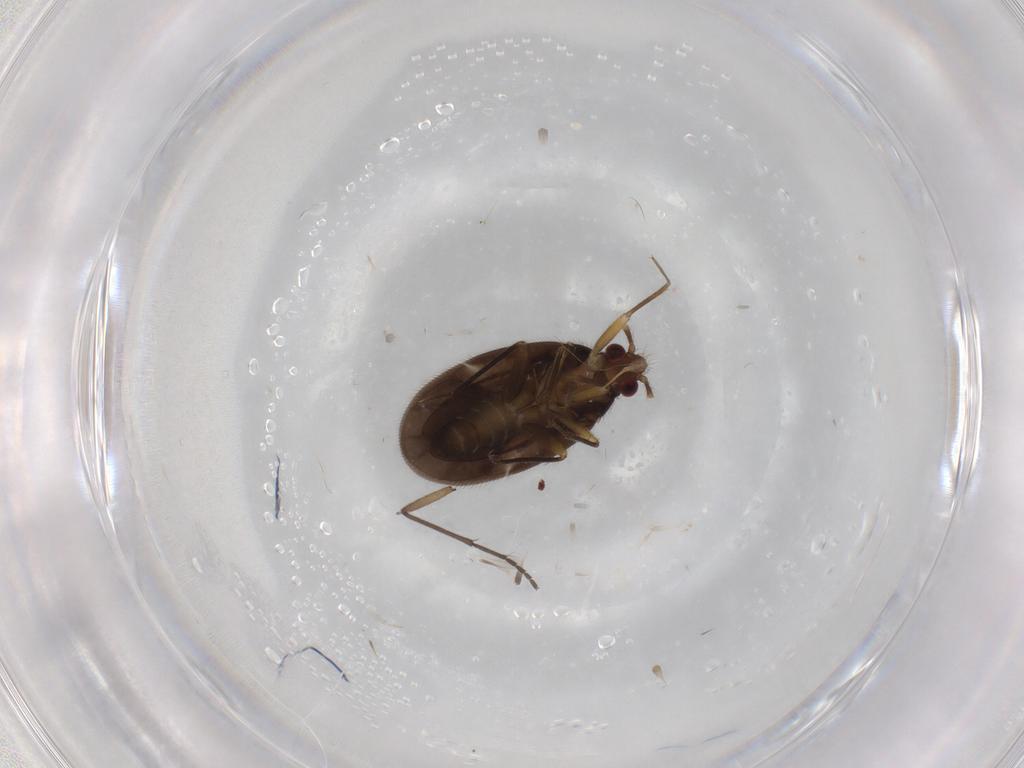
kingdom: Animalia
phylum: Arthropoda
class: Insecta
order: Hemiptera
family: Ceratocombidae
